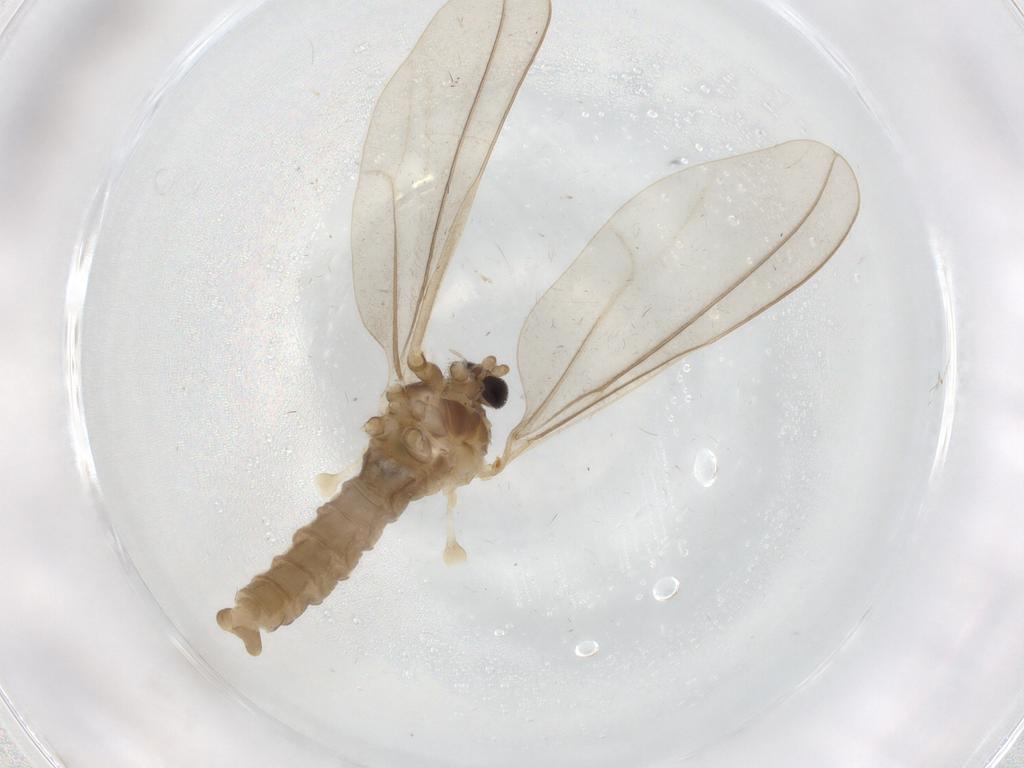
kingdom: Animalia
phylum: Arthropoda
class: Insecta
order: Diptera
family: Cecidomyiidae
